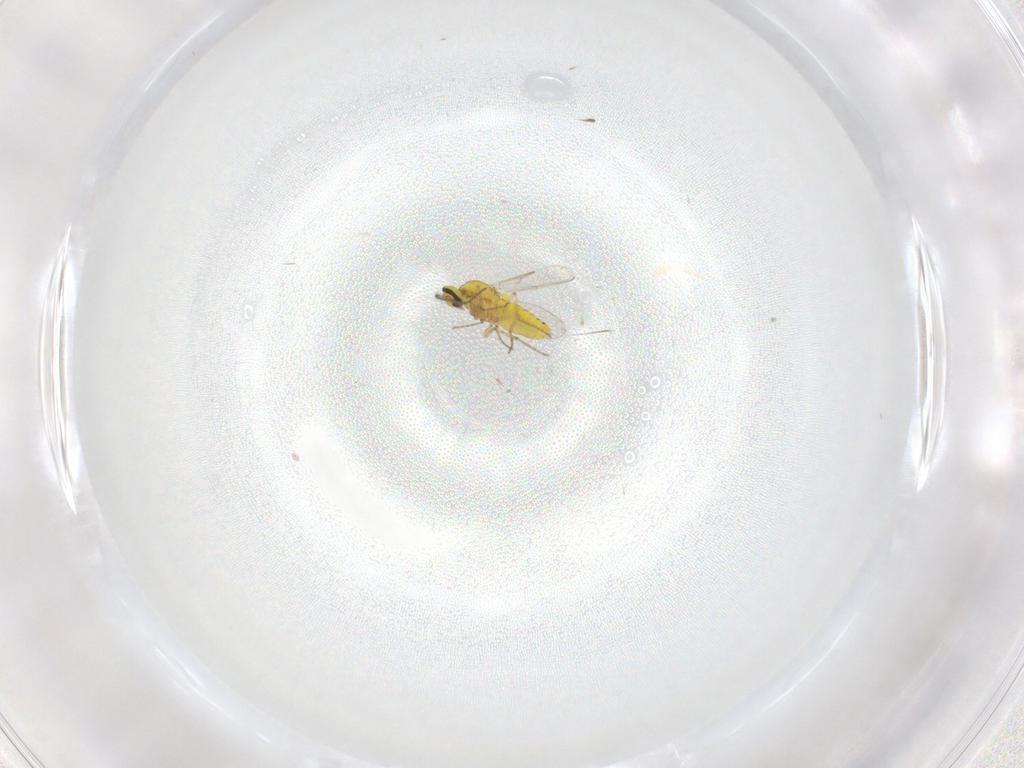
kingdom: Animalia
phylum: Arthropoda
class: Insecta
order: Diptera
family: Ceratopogonidae
